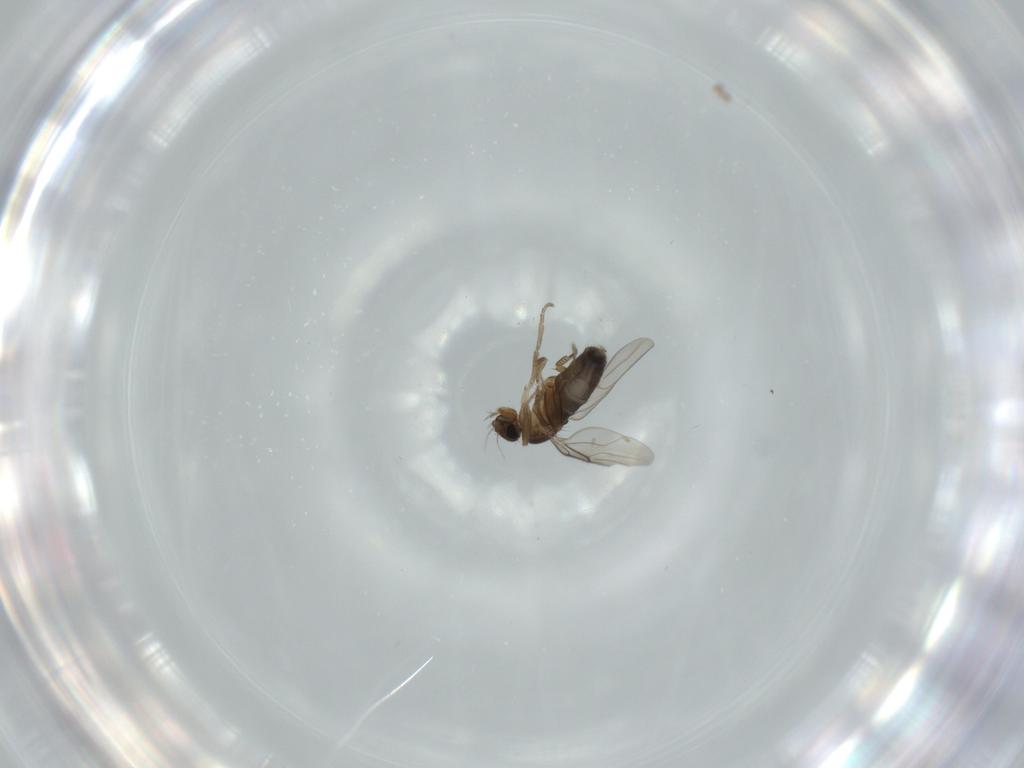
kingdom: Animalia
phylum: Arthropoda
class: Insecta
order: Diptera
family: Phoridae
